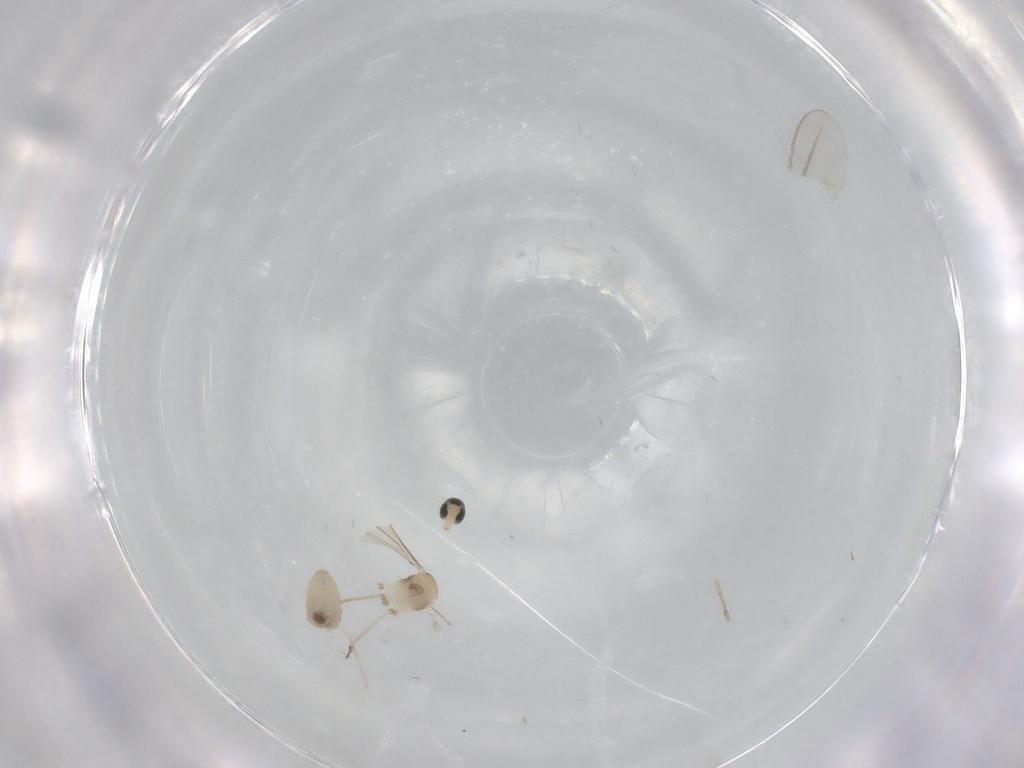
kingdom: Animalia
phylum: Arthropoda
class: Insecta
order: Diptera
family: Cecidomyiidae
